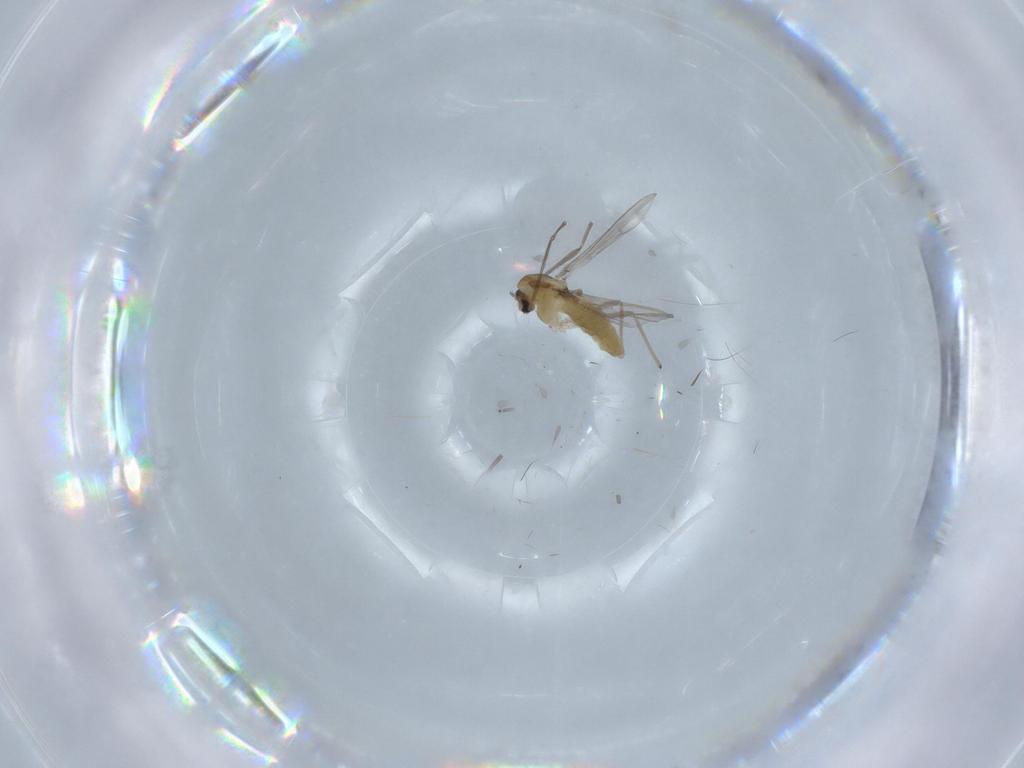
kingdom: Animalia
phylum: Arthropoda
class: Insecta
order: Diptera
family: Chironomidae
